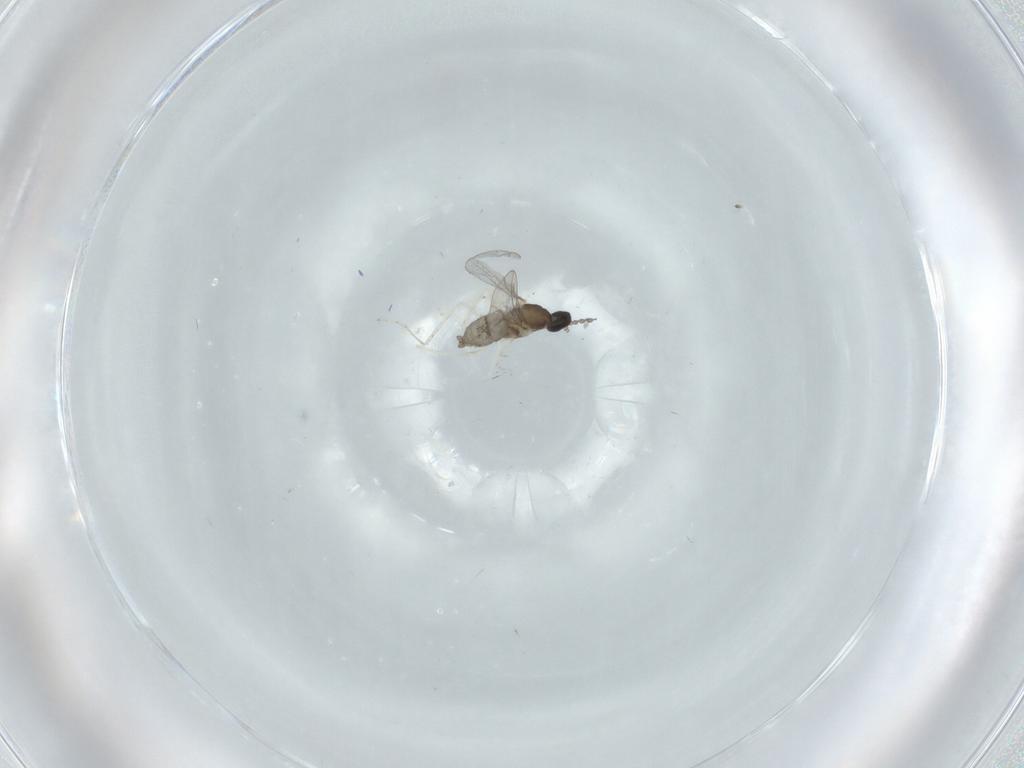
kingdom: Animalia
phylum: Arthropoda
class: Insecta
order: Diptera
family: Cecidomyiidae
